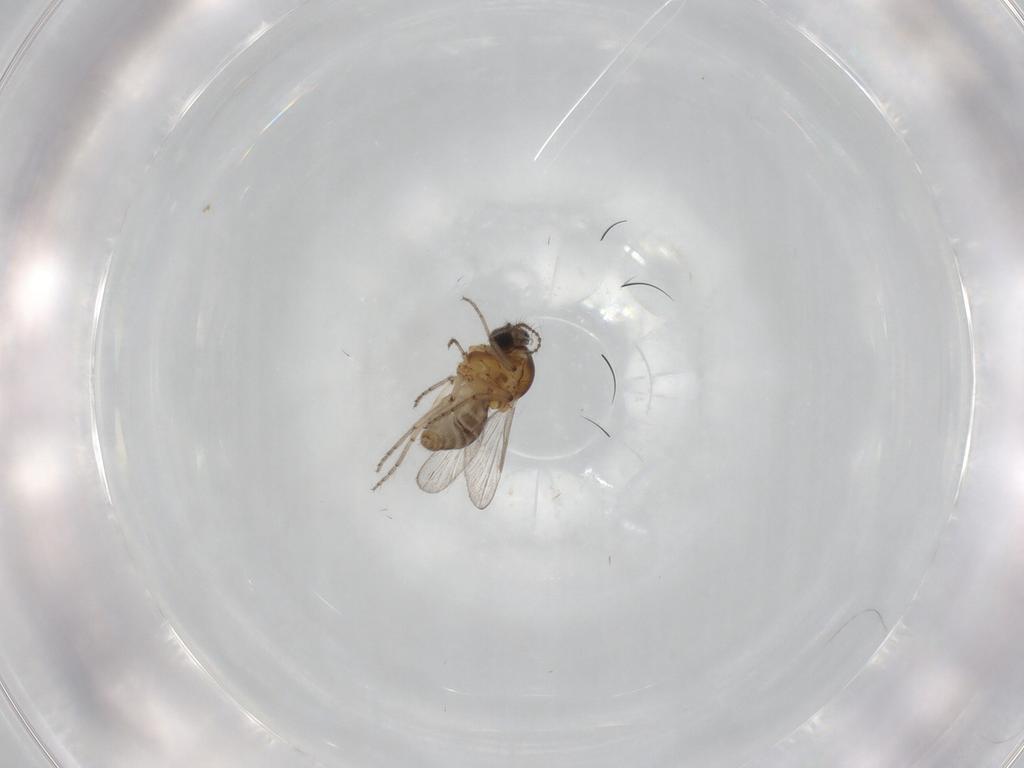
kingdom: Animalia
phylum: Arthropoda
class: Insecta
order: Diptera
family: Ceratopogonidae
